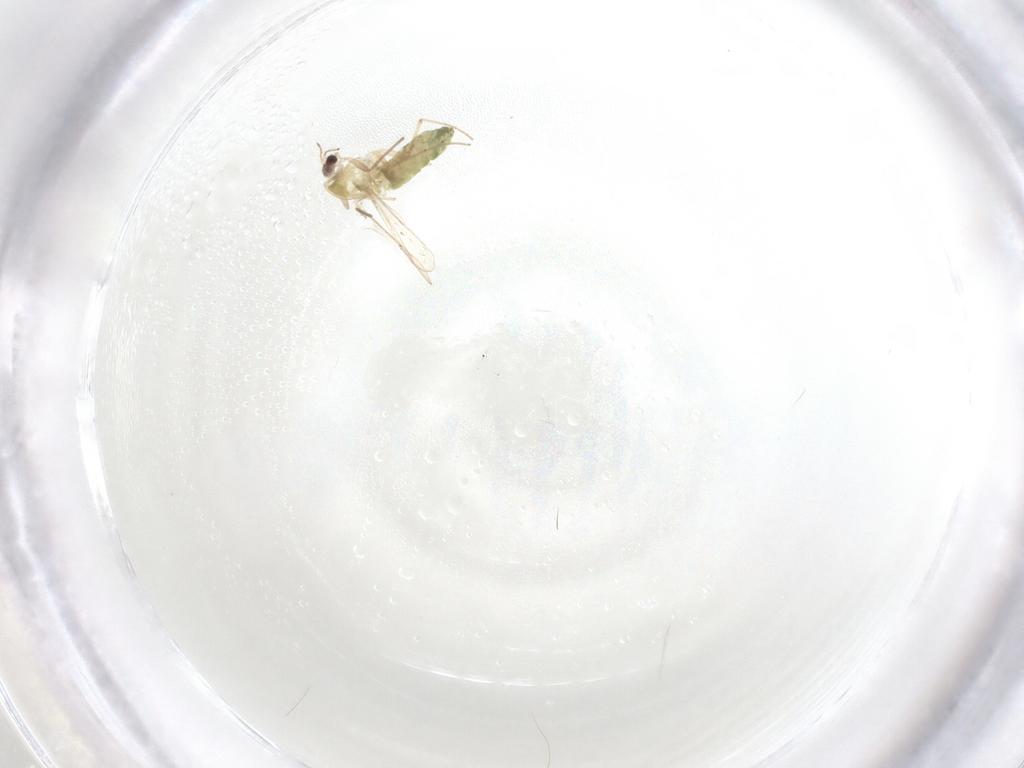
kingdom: Animalia
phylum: Arthropoda
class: Insecta
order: Diptera
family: Chironomidae
